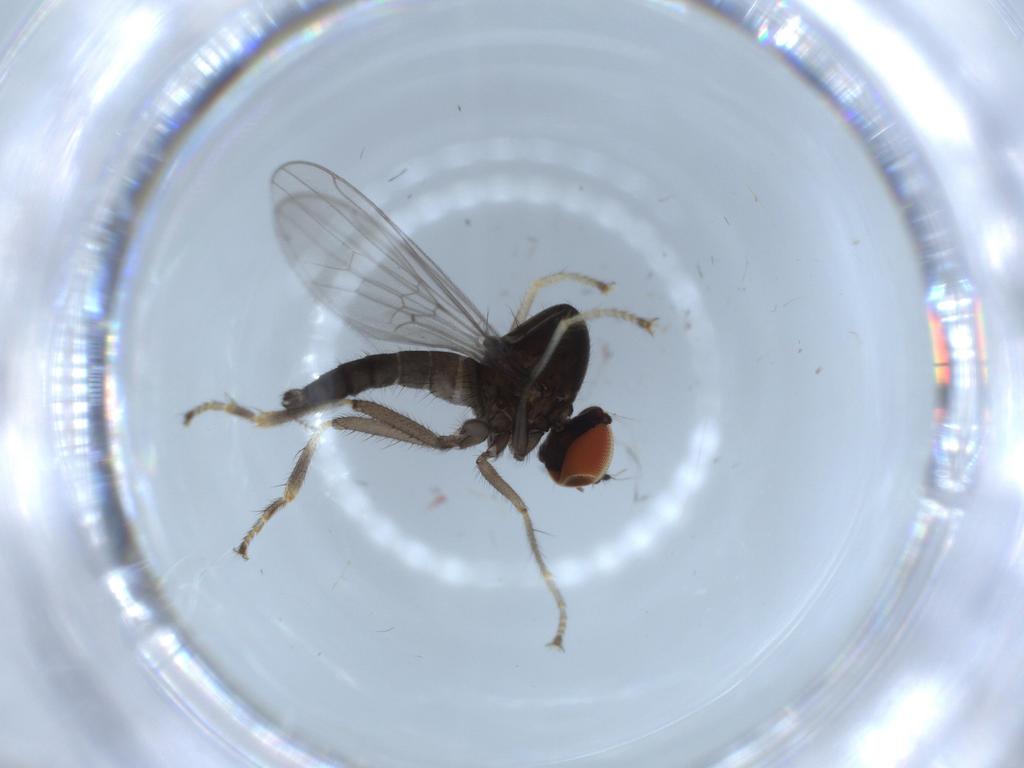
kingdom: Animalia
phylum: Arthropoda
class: Insecta
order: Diptera
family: Hybotidae
